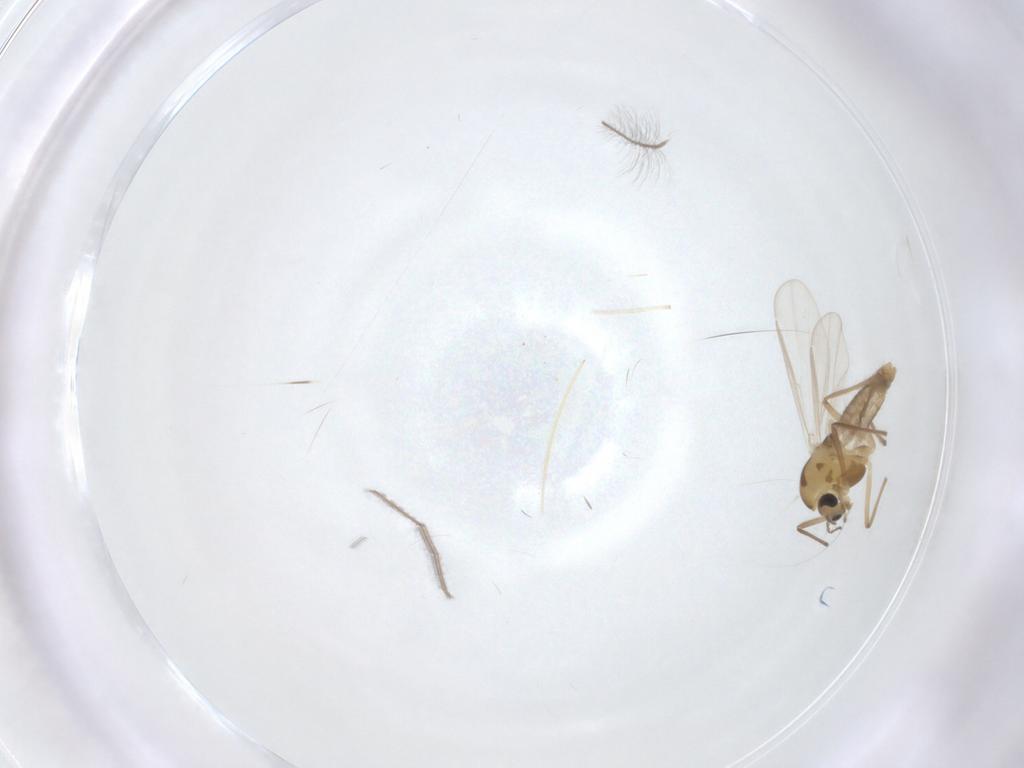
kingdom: Animalia
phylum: Arthropoda
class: Insecta
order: Diptera
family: Chironomidae
